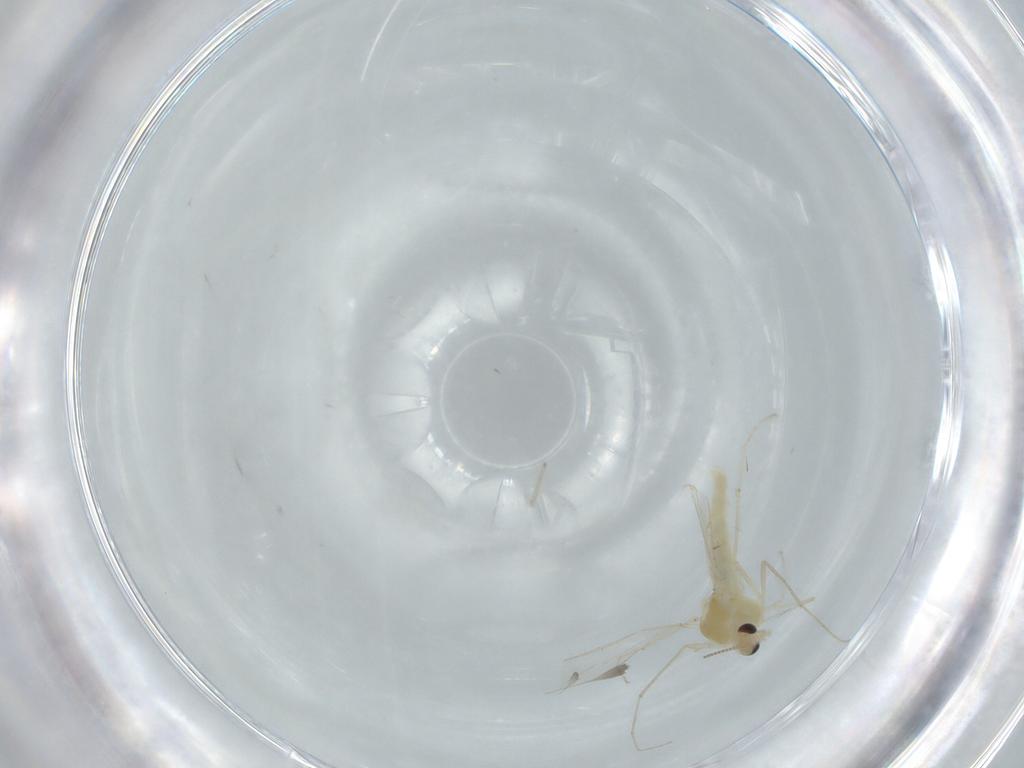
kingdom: Animalia
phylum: Arthropoda
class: Insecta
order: Diptera
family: Chironomidae
